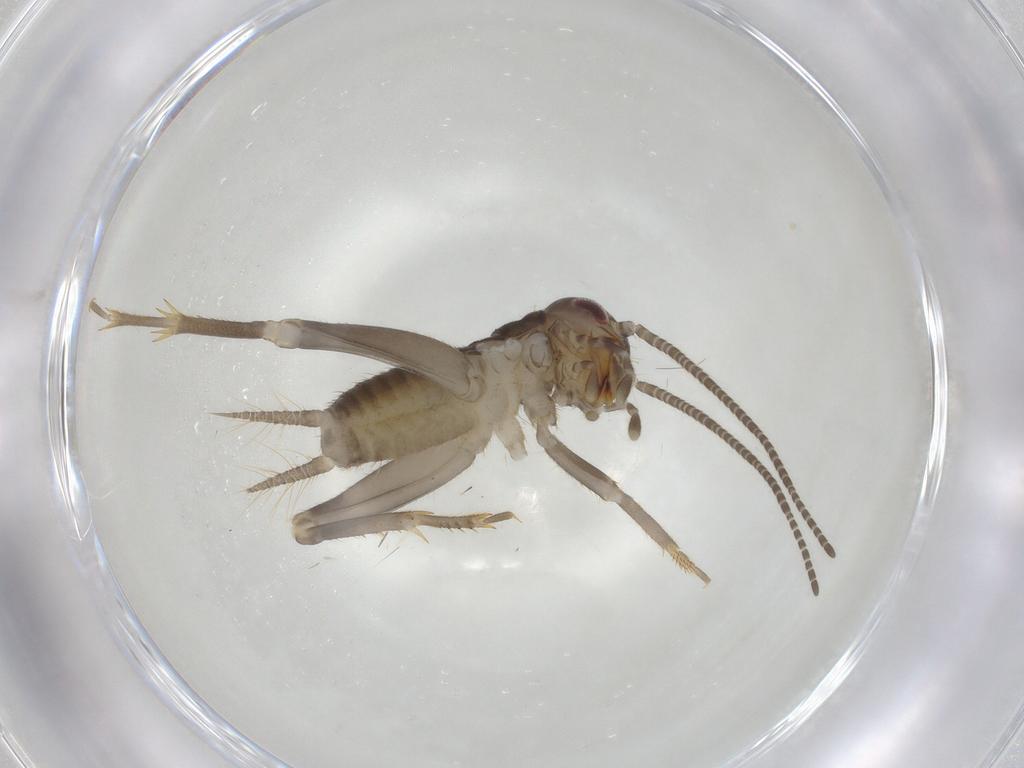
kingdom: Animalia
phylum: Arthropoda
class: Insecta
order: Orthoptera
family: Gryllidae
